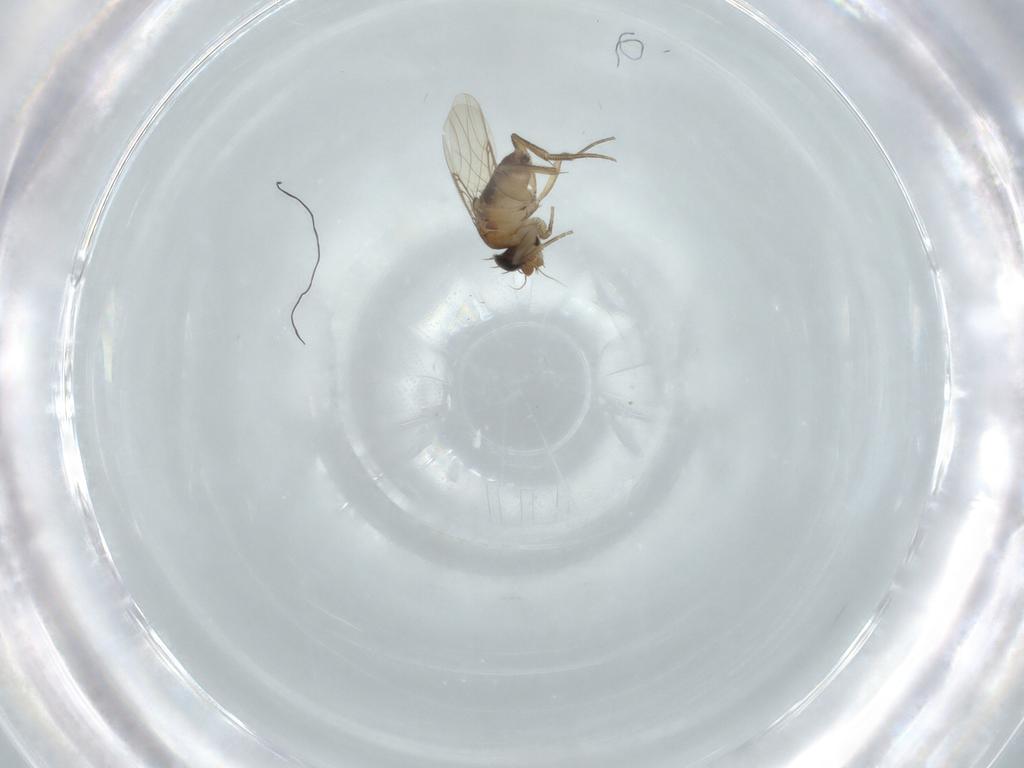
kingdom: Animalia
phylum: Arthropoda
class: Insecta
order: Diptera
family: Phoridae
